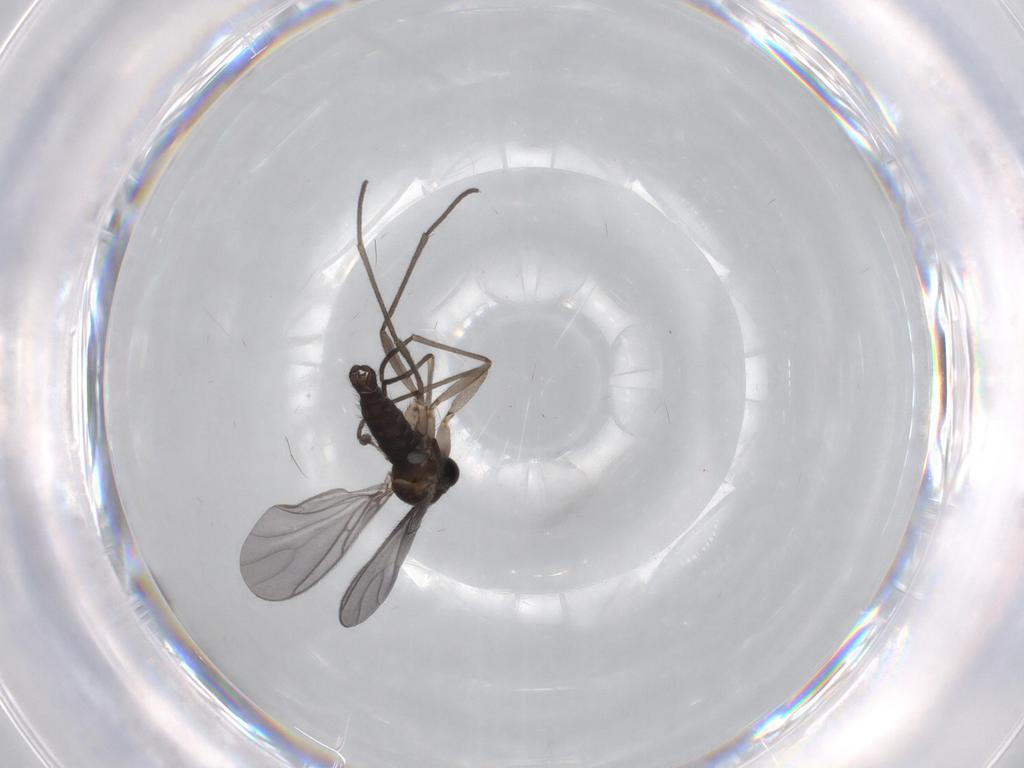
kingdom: Animalia
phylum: Arthropoda
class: Insecta
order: Diptera
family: Sciaridae
